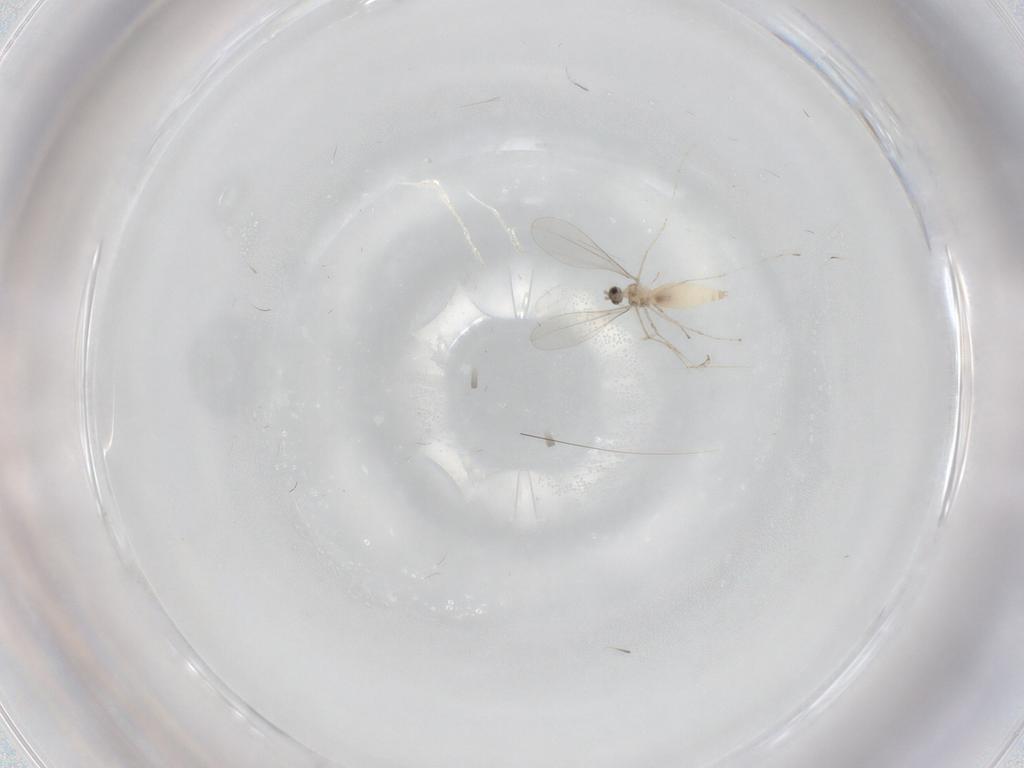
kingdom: Animalia
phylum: Arthropoda
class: Insecta
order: Diptera
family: Cecidomyiidae
